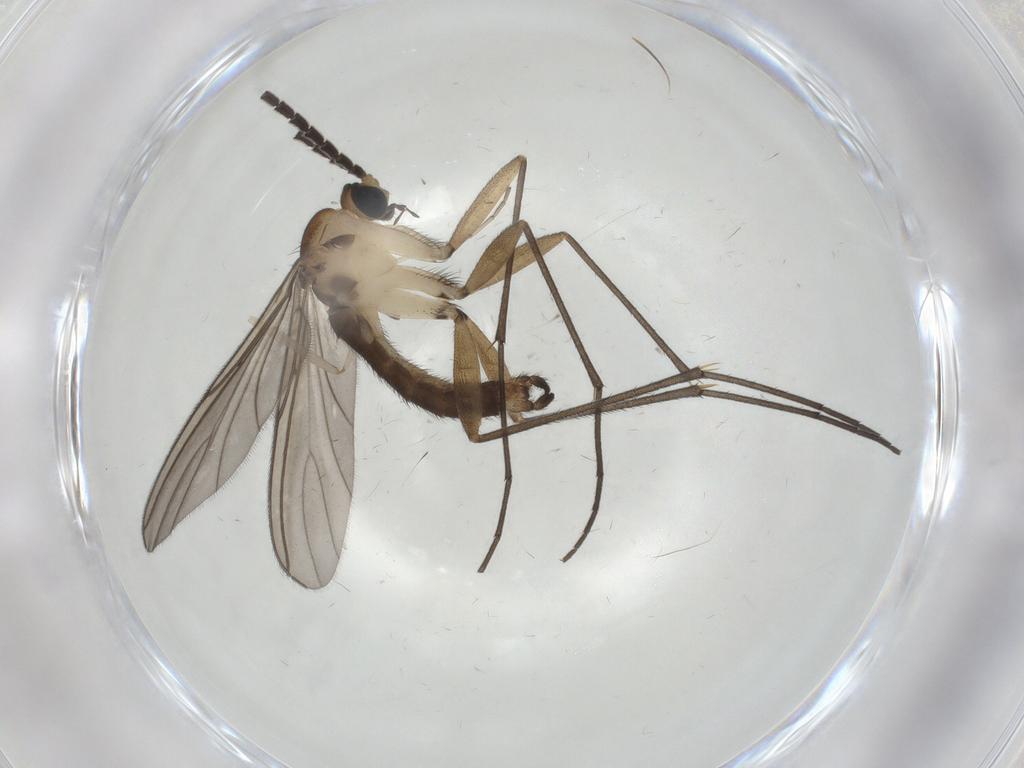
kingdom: Animalia
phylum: Arthropoda
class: Insecta
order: Diptera
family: Sciaridae
